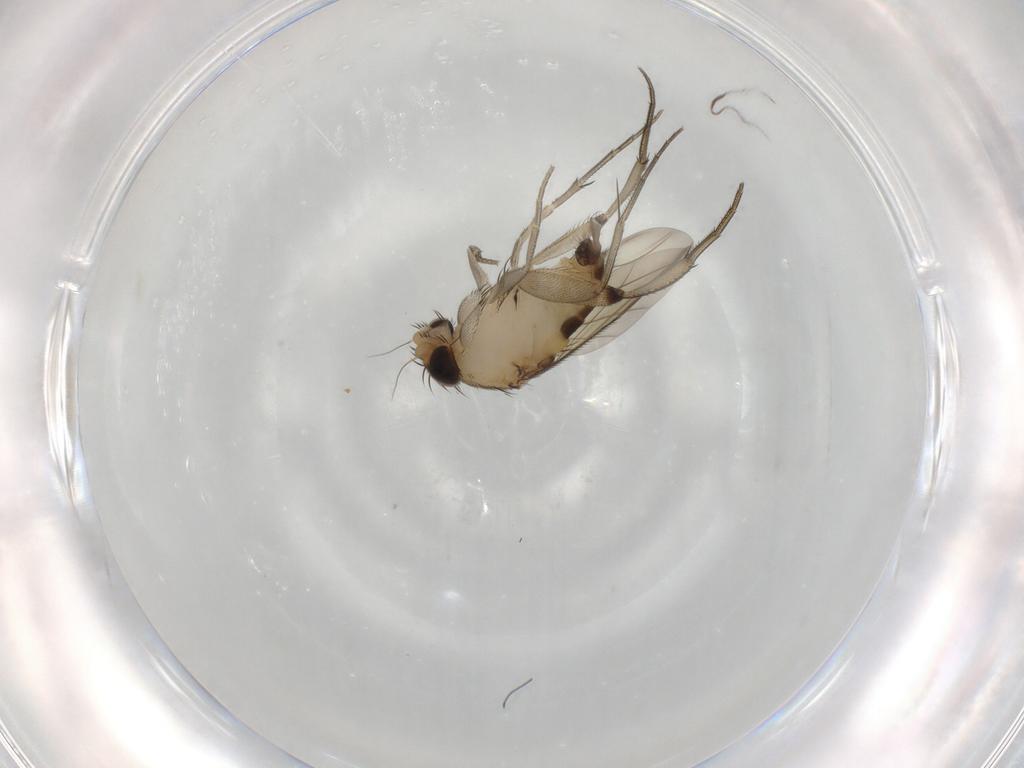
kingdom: Animalia
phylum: Arthropoda
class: Insecta
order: Diptera
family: Phoridae
